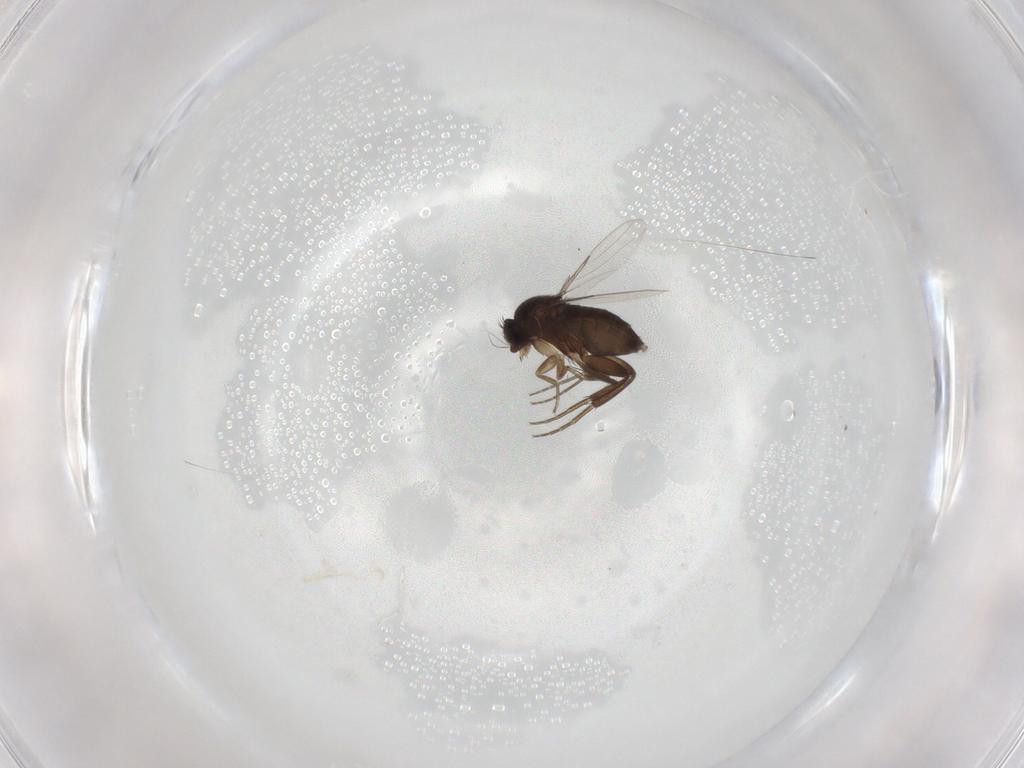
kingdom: Animalia
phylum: Arthropoda
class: Insecta
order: Diptera
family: Phoridae
